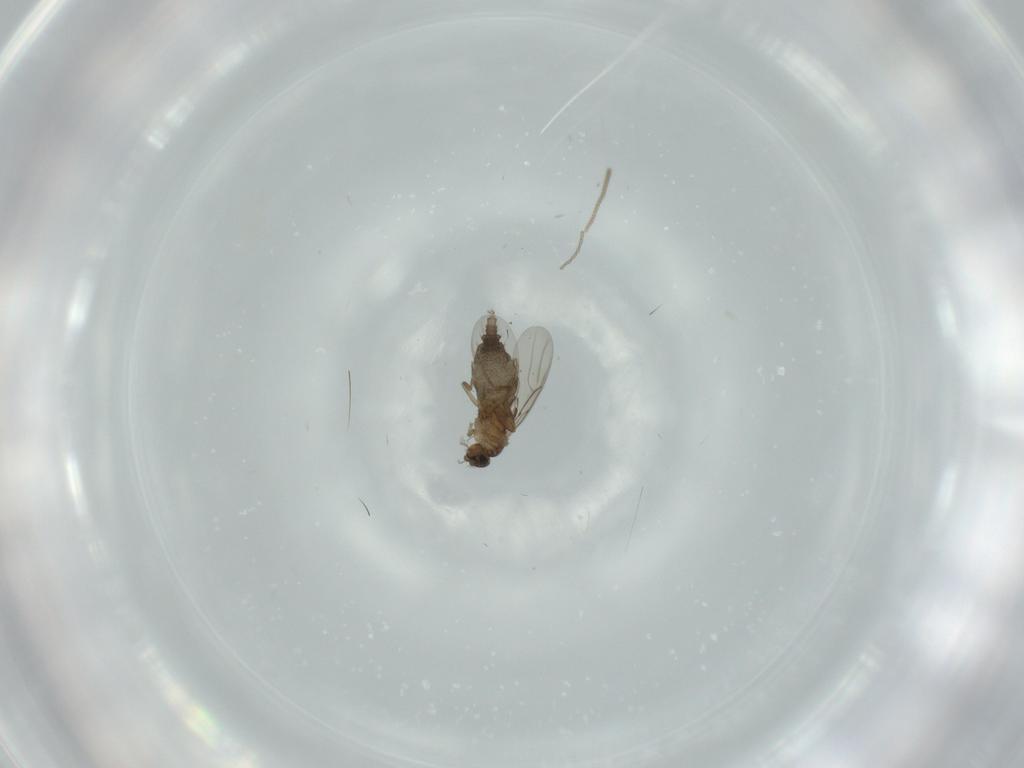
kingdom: Animalia
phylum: Arthropoda
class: Insecta
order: Diptera
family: Cecidomyiidae
